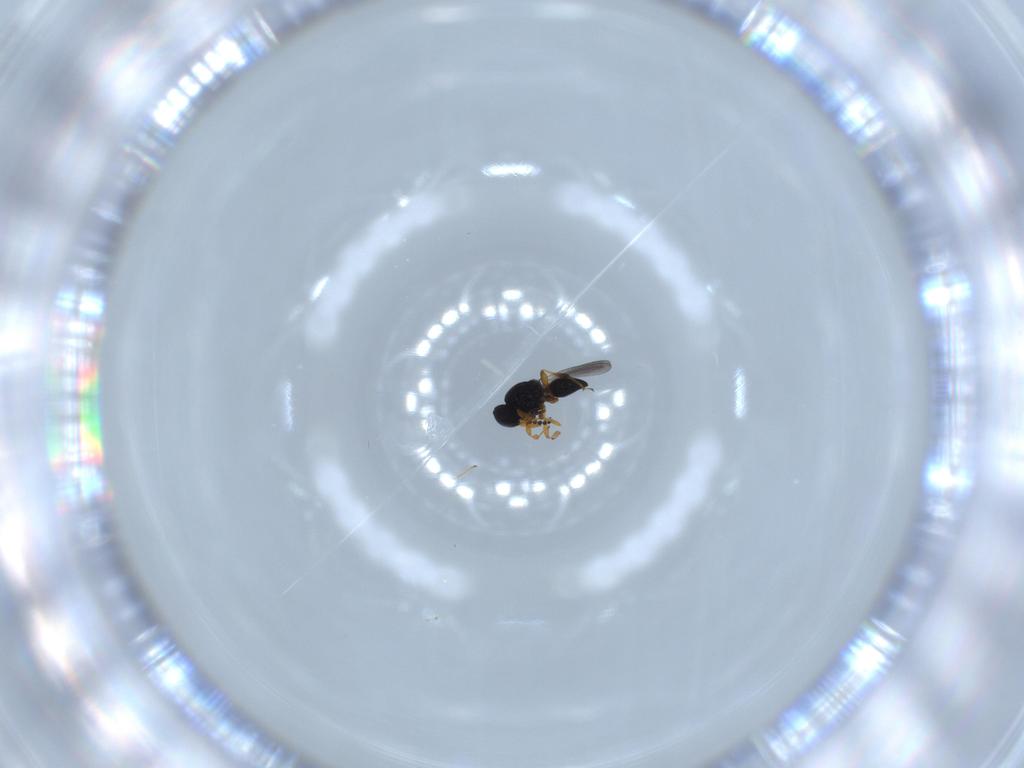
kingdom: Animalia
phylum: Arthropoda
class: Insecta
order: Hymenoptera
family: Platygastridae
